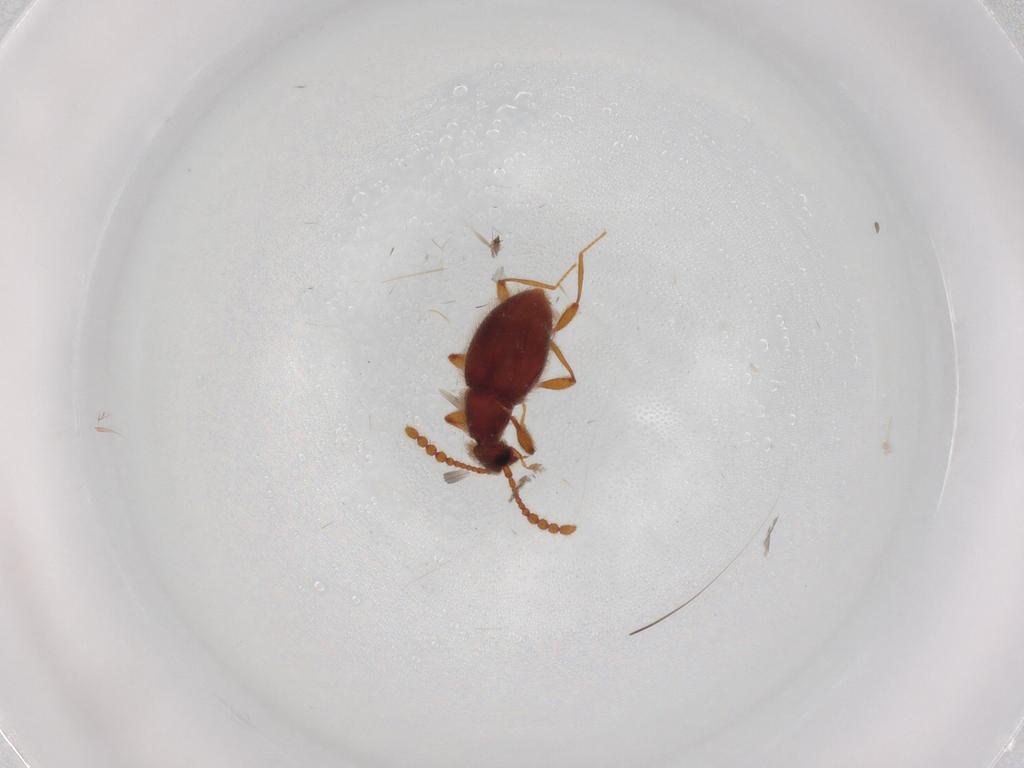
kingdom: Animalia
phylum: Arthropoda
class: Insecta
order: Coleoptera
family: Staphylinidae
